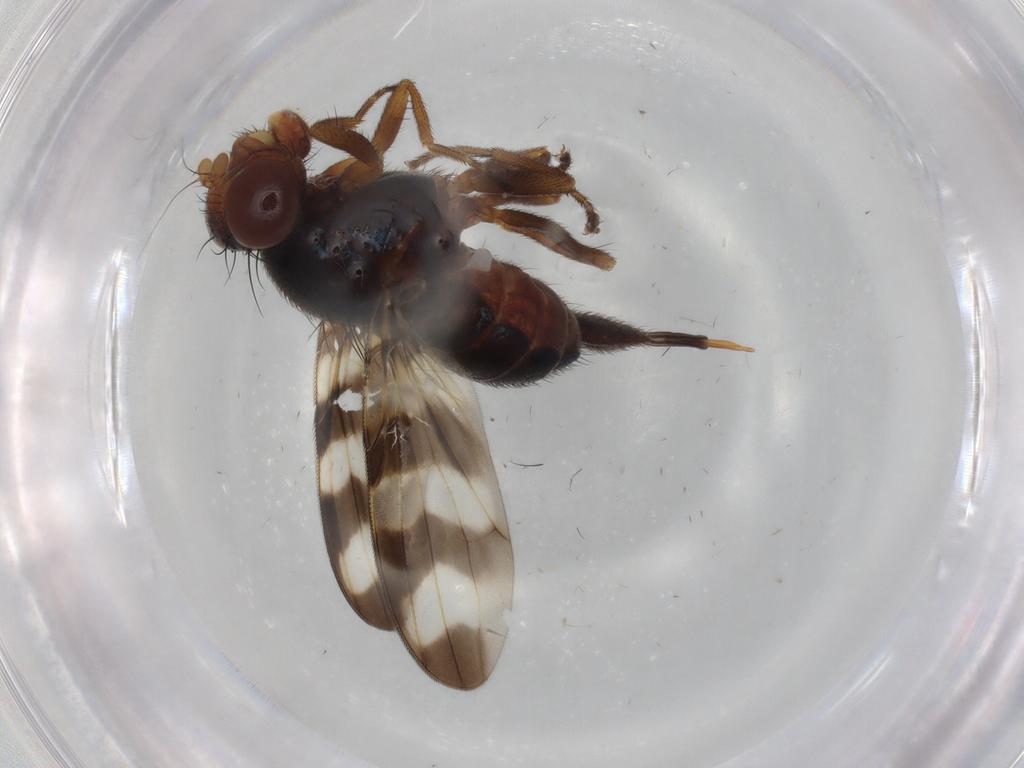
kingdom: Animalia
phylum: Arthropoda
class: Insecta
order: Diptera
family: Ulidiidae
